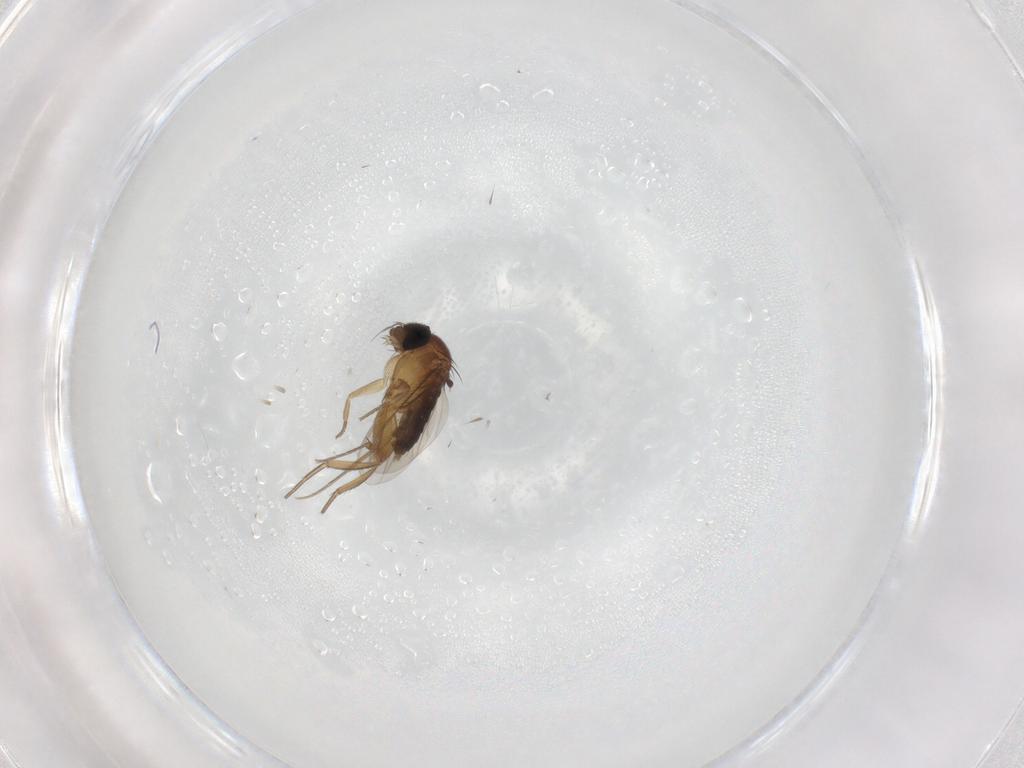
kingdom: Animalia
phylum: Arthropoda
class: Insecta
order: Diptera
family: Phoridae
